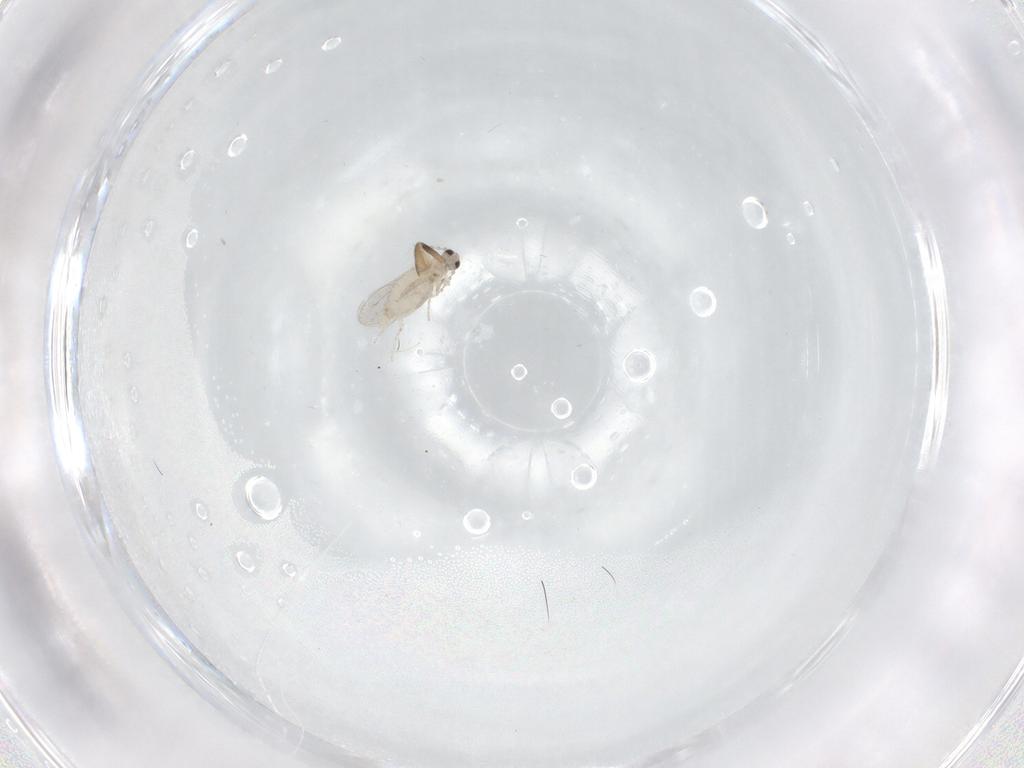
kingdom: Animalia
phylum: Arthropoda
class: Insecta
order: Diptera
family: Cecidomyiidae
